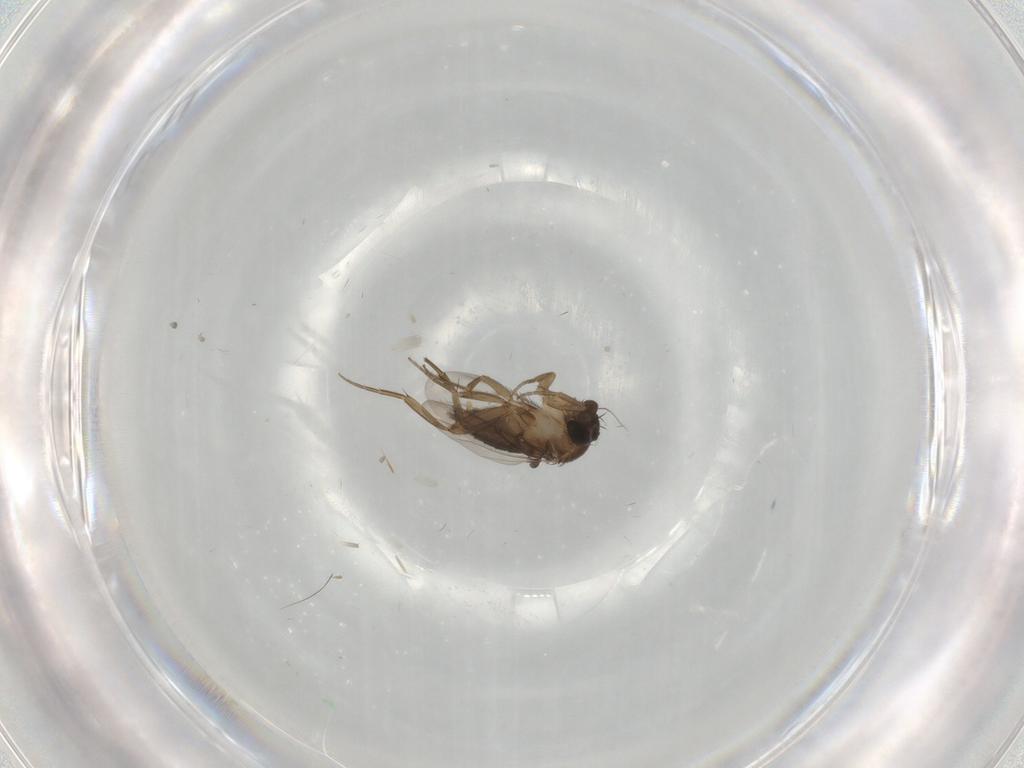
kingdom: Animalia
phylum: Arthropoda
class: Insecta
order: Diptera
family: Phoridae
